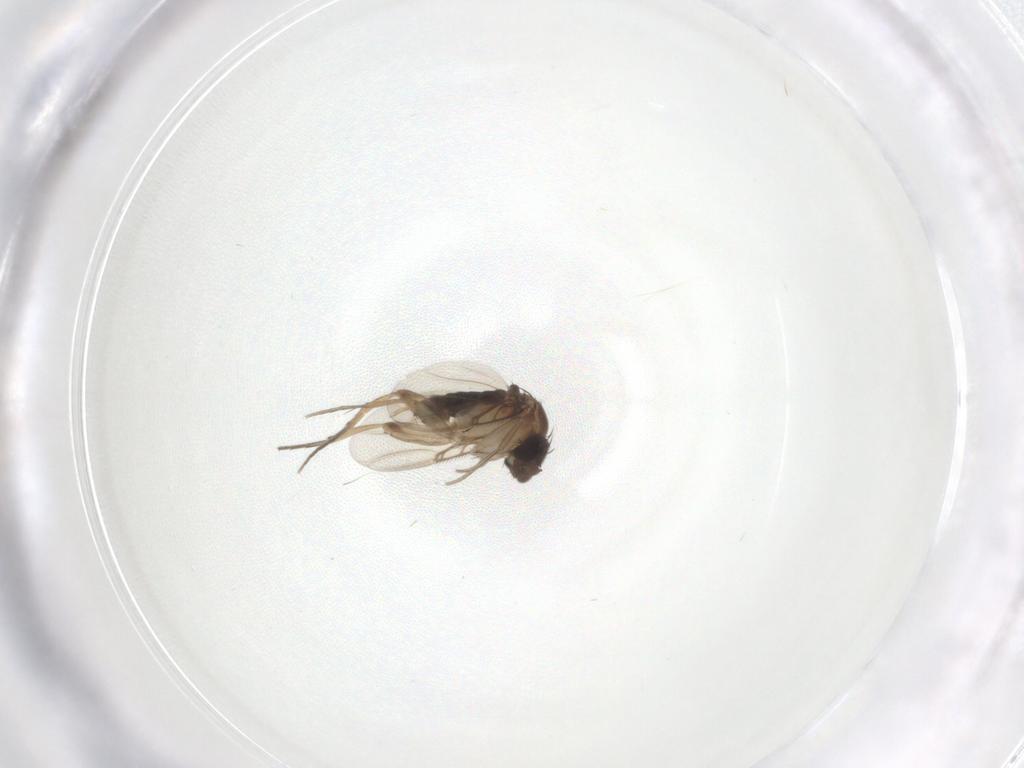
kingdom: Animalia
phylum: Arthropoda
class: Insecta
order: Diptera
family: Phoridae
